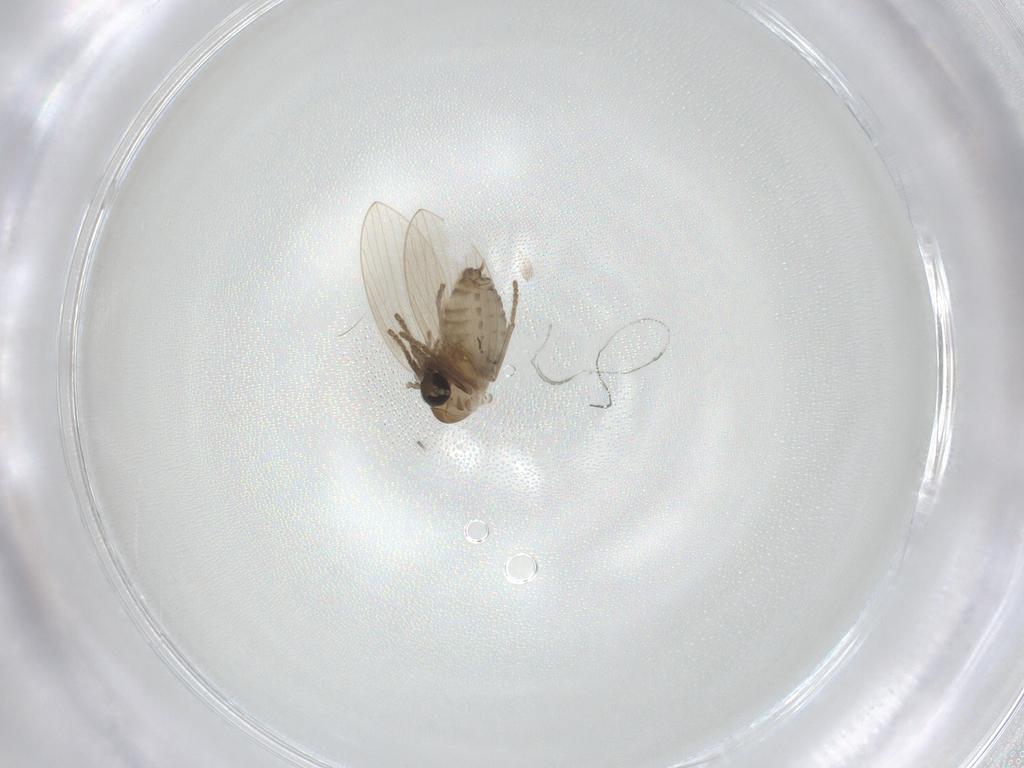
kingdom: Animalia
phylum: Arthropoda
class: Insecta
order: Diptera
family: Psychodidae
